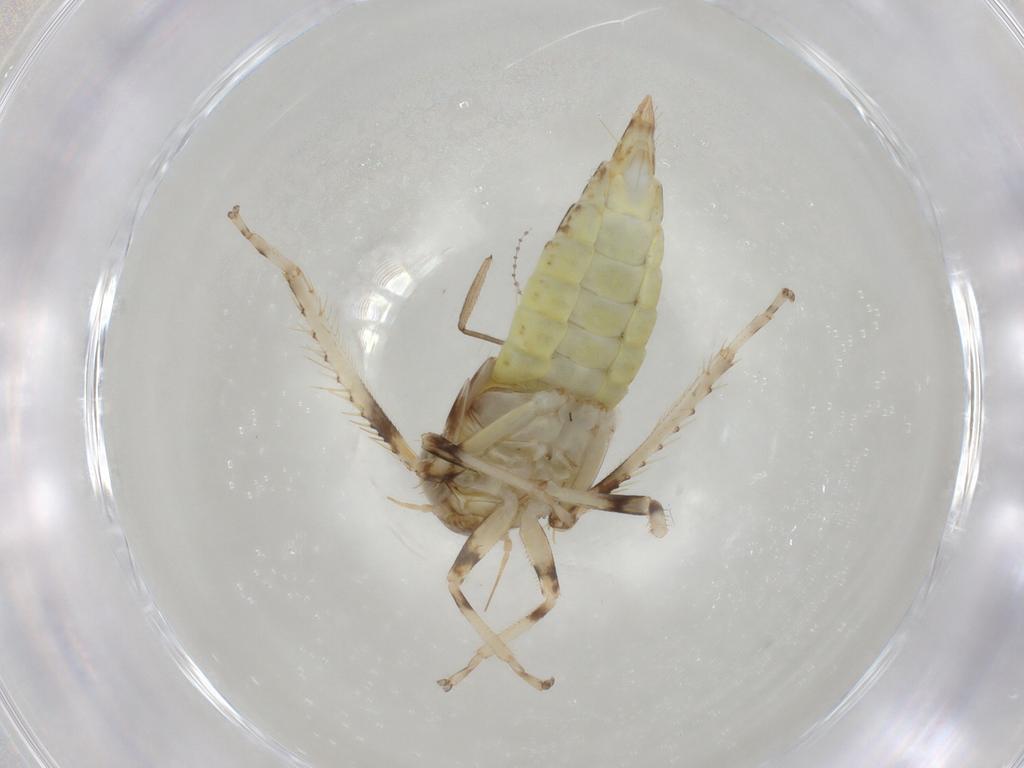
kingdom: Animalia
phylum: Arthropoda
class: Insecta
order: Hemiptera
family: Cicadellidae
